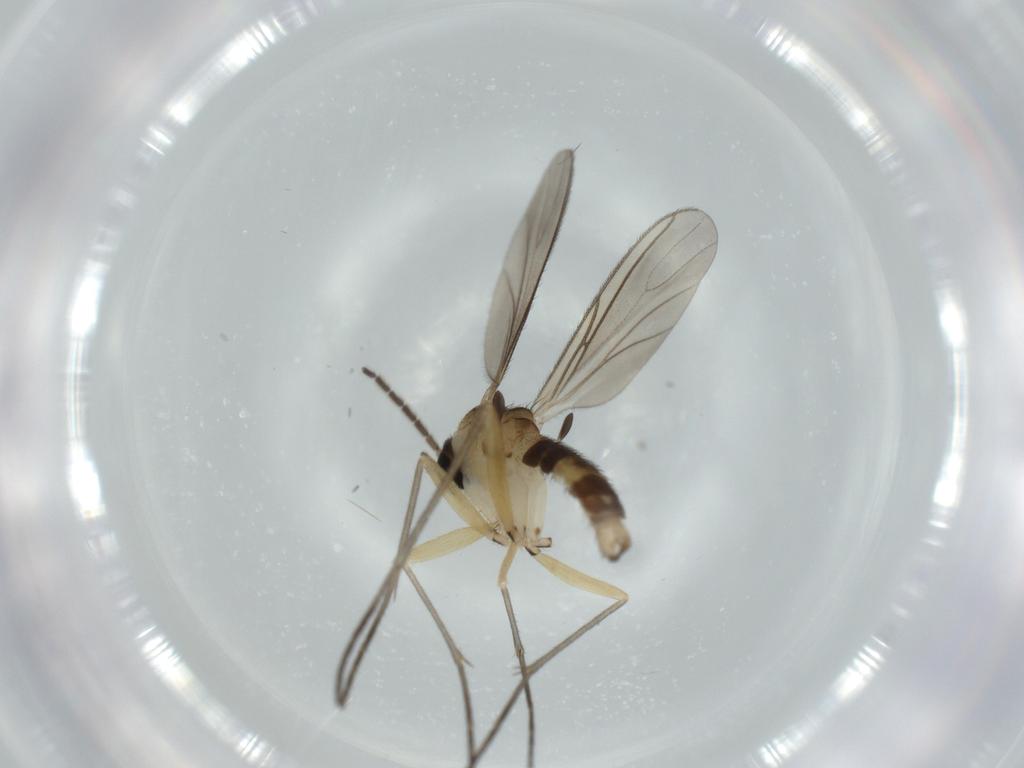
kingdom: Animalia
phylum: Arthropoda
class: Insecta
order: Diptera
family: Sciaridae
